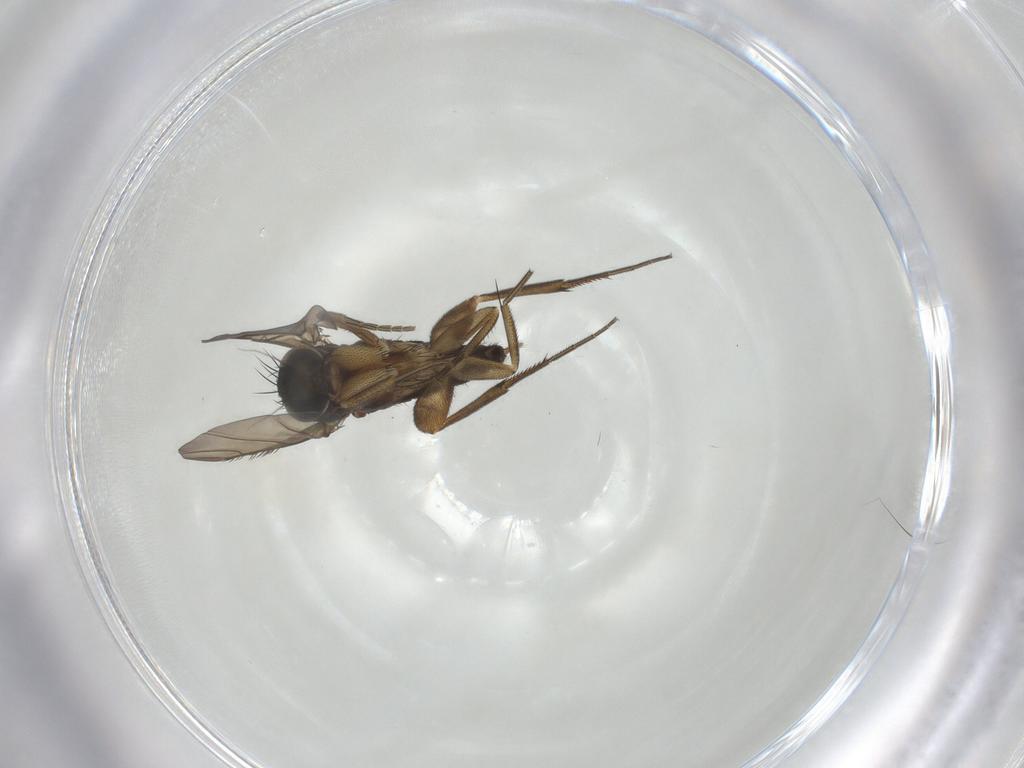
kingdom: Animalia
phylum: Arthropoda
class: Insecta
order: Diptera
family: Phoridae
